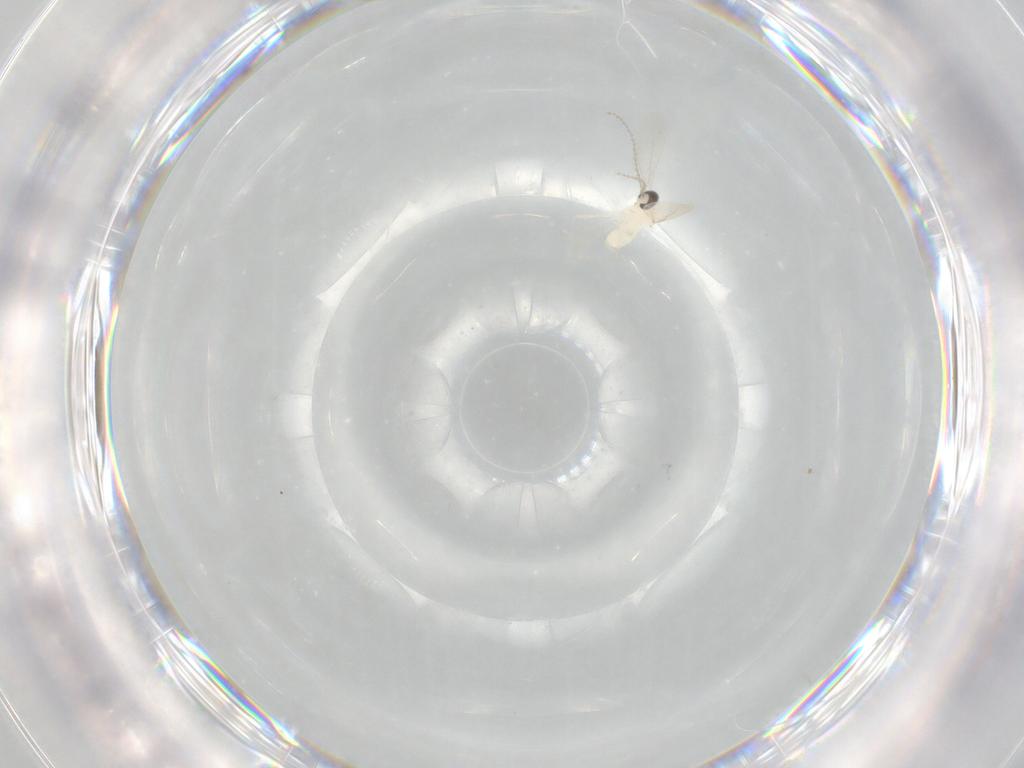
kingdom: Animalia
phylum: Arthropoda
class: Insecta
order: Diptera
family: Cecidomyiidae
